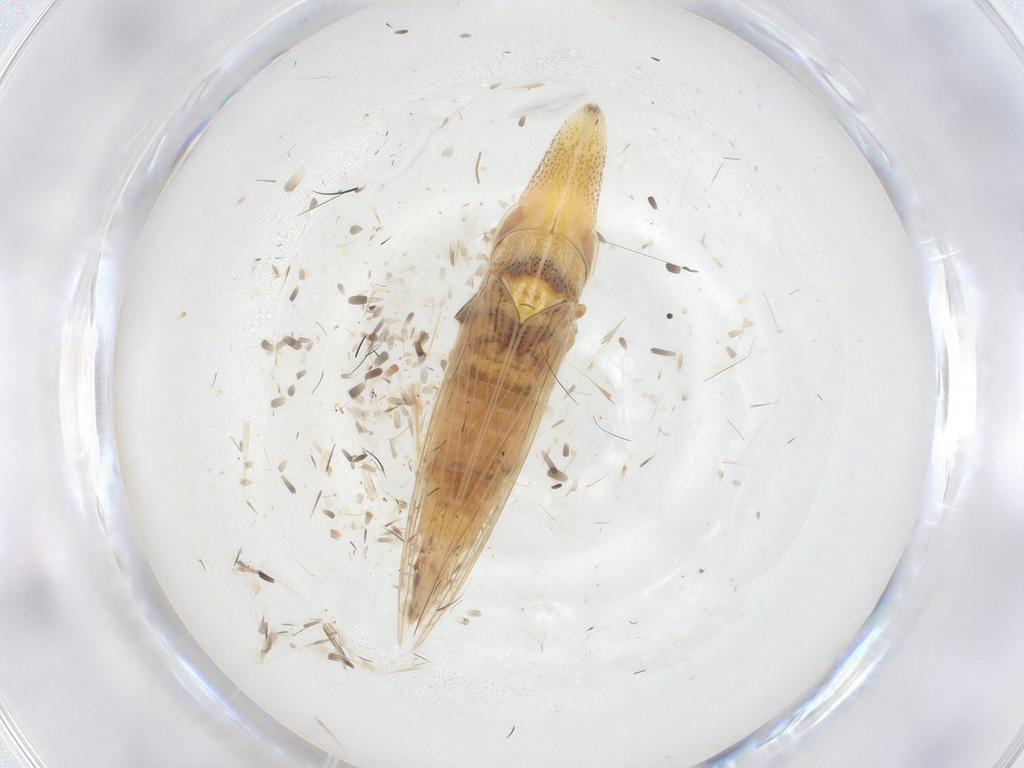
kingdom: Animalia
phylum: Arthropoda
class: Insecta
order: Hemiptera
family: Cicadellidae
